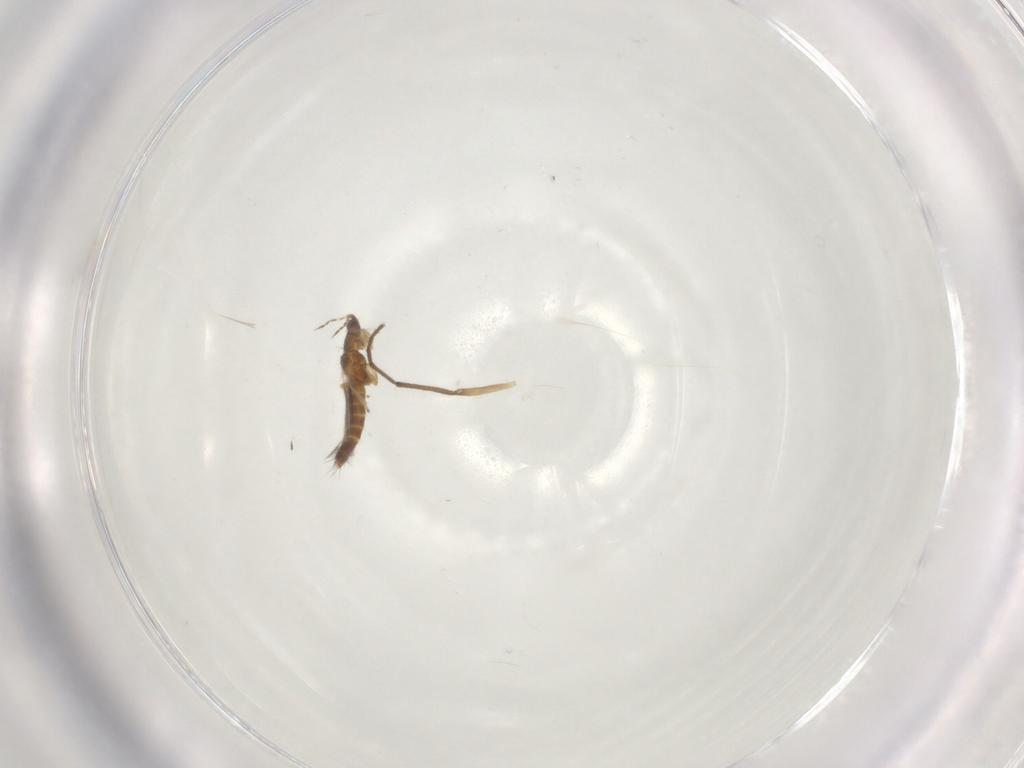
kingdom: Animalia
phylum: Arthropoda
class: Insecta
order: Thysanoptera
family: Thripidae
